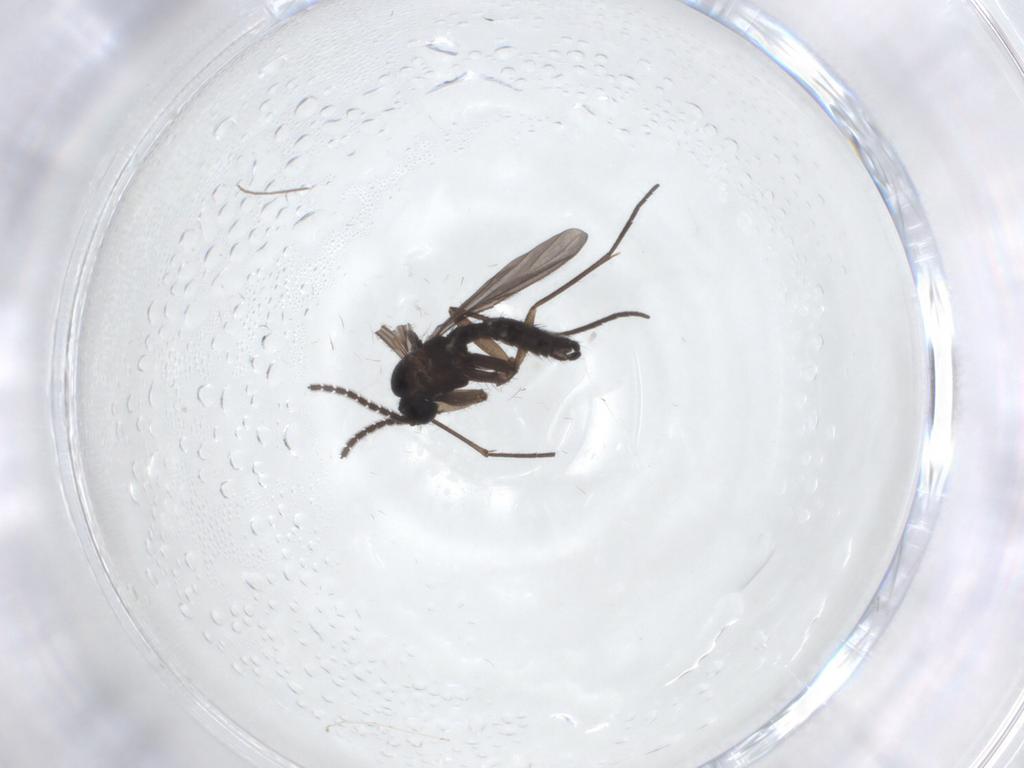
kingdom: Animalia
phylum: Arthropoda
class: Insecta
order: Diptera
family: Sciaridae
